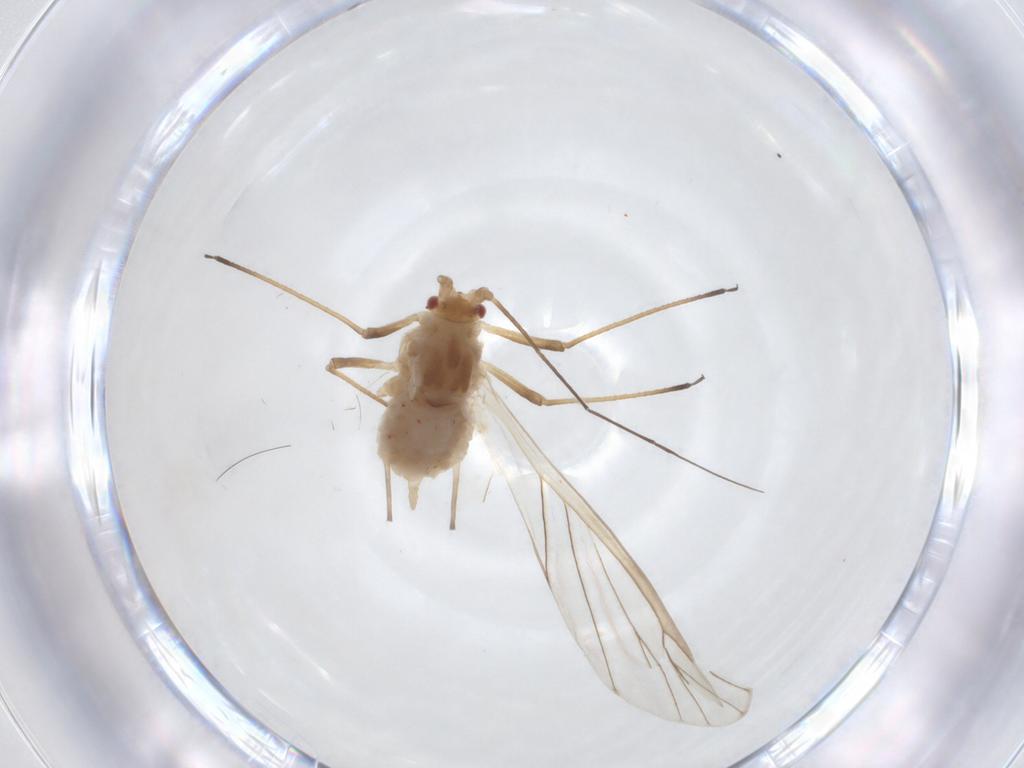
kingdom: Animalia
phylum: Arthropoda
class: Insecta
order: Hemiptera
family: Aphididae
